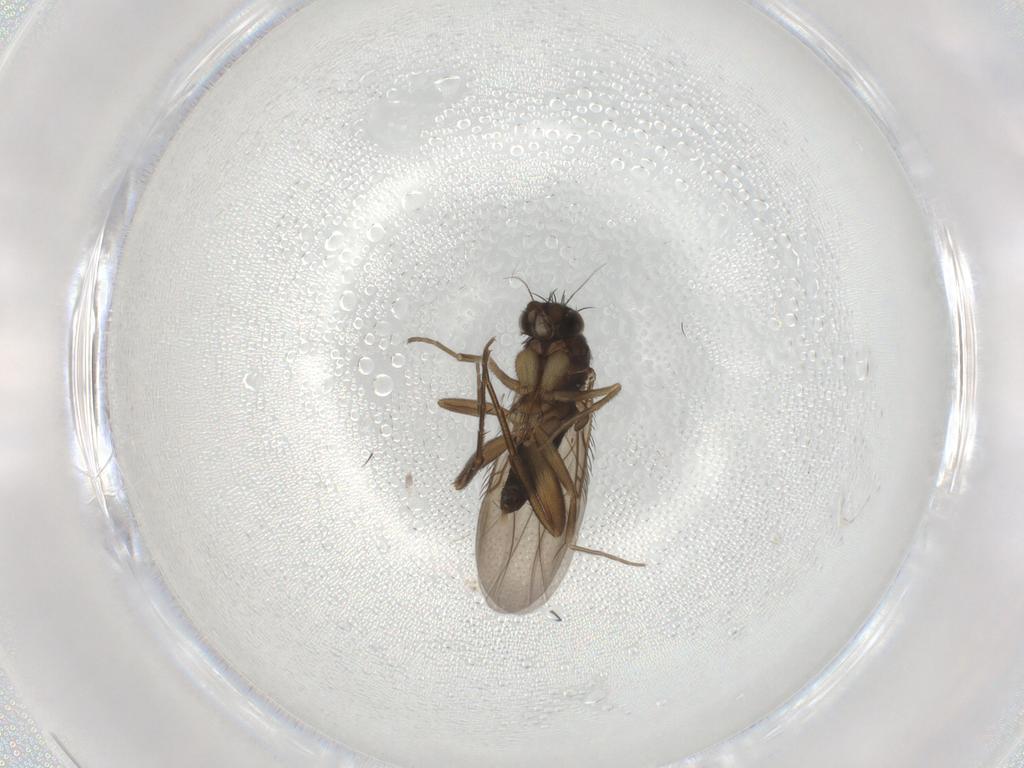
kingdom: Animalia
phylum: Arthropoda
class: Insecta
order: Diptera
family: Phoridae
